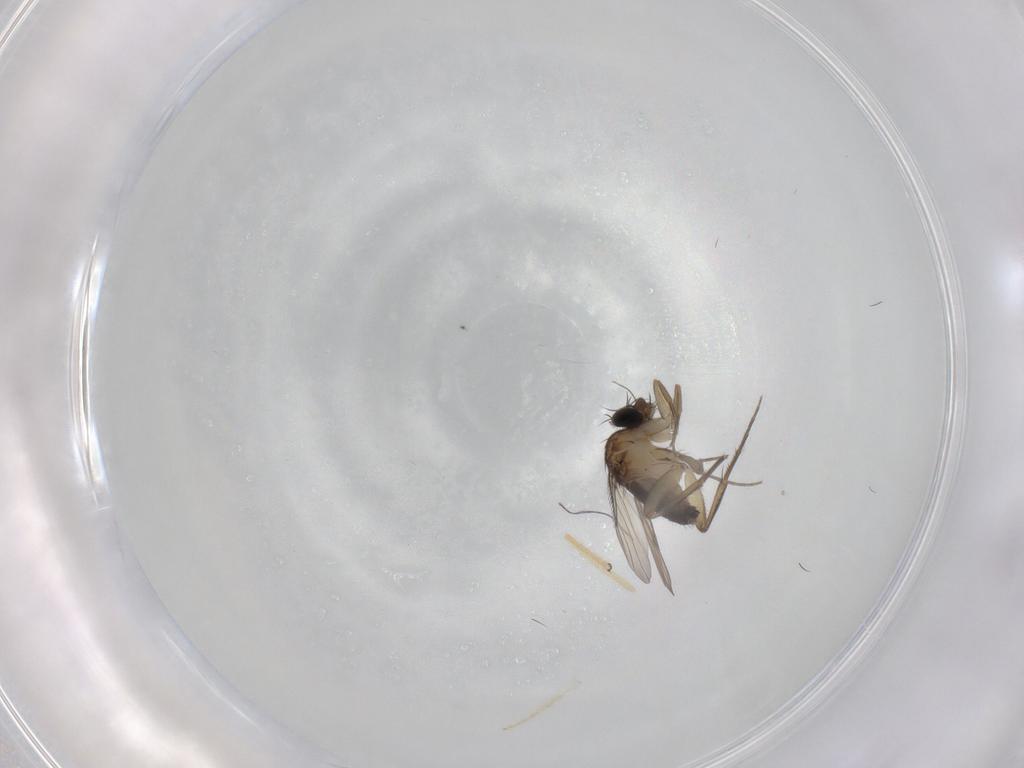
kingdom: Animalia
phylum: Arthropoda
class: Insecta
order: Diptera
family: Phoridae
